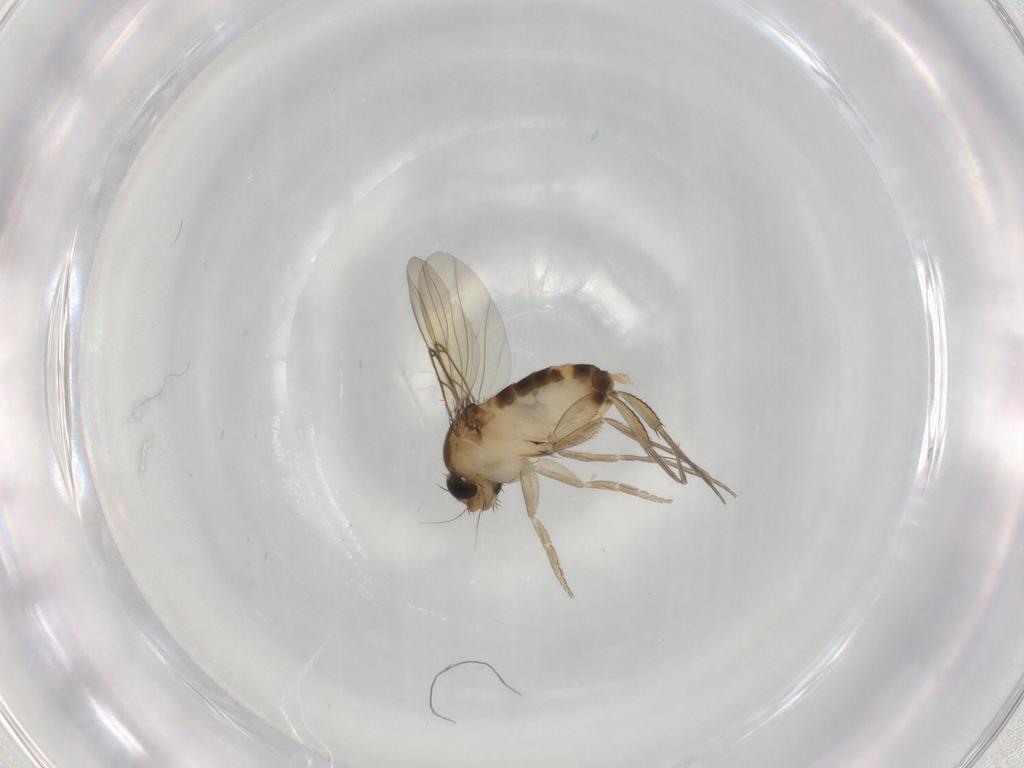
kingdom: Animalia
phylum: Arthropoda
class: Insecta
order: Diptera
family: Phoridae
